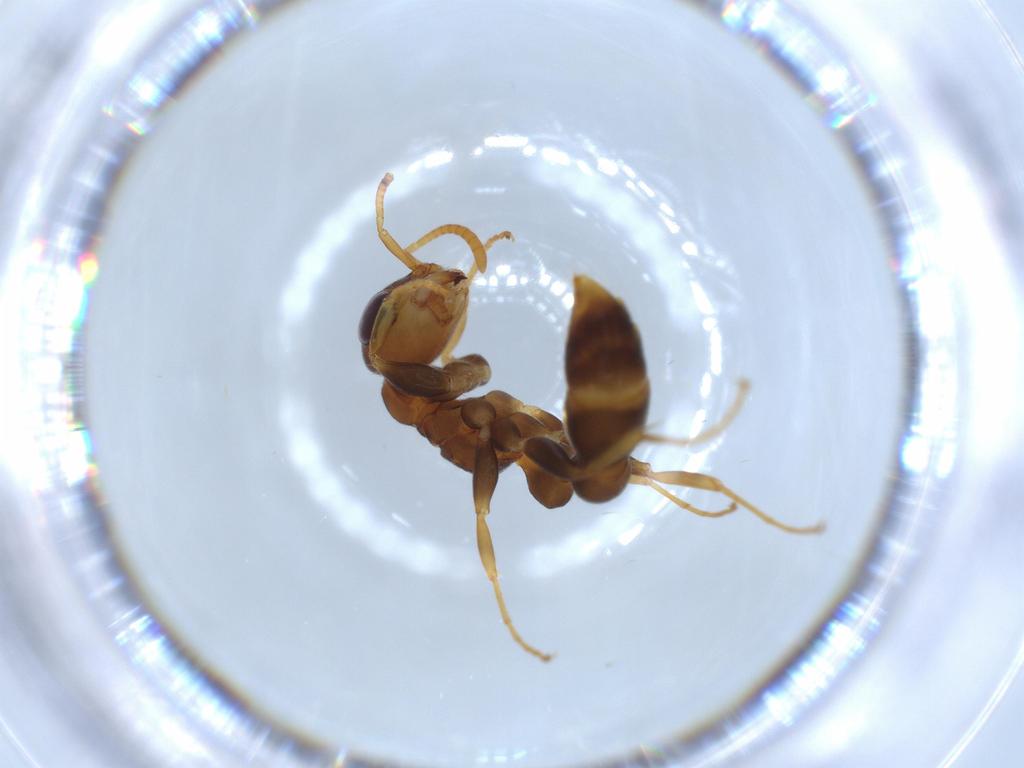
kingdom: Animalia
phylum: Arthropoda
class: Insecta
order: Hymenoptera
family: Formicidae
